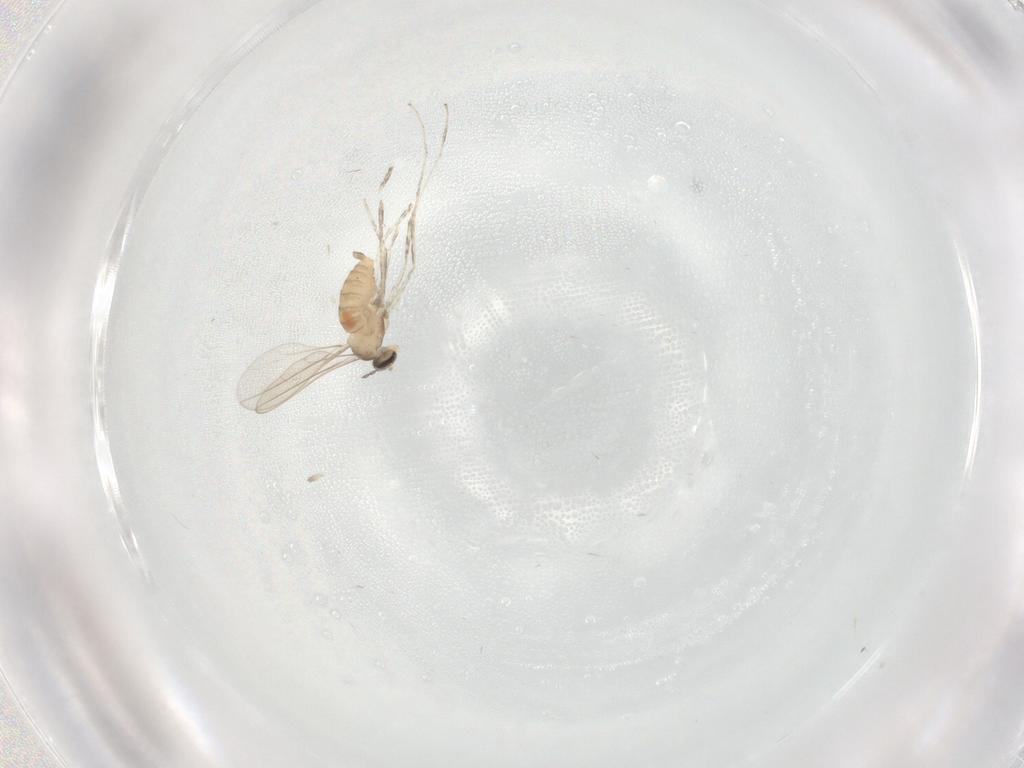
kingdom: Animalia
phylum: Arthropoda
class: Insecta
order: Diptera
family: Cecidomyiidae
